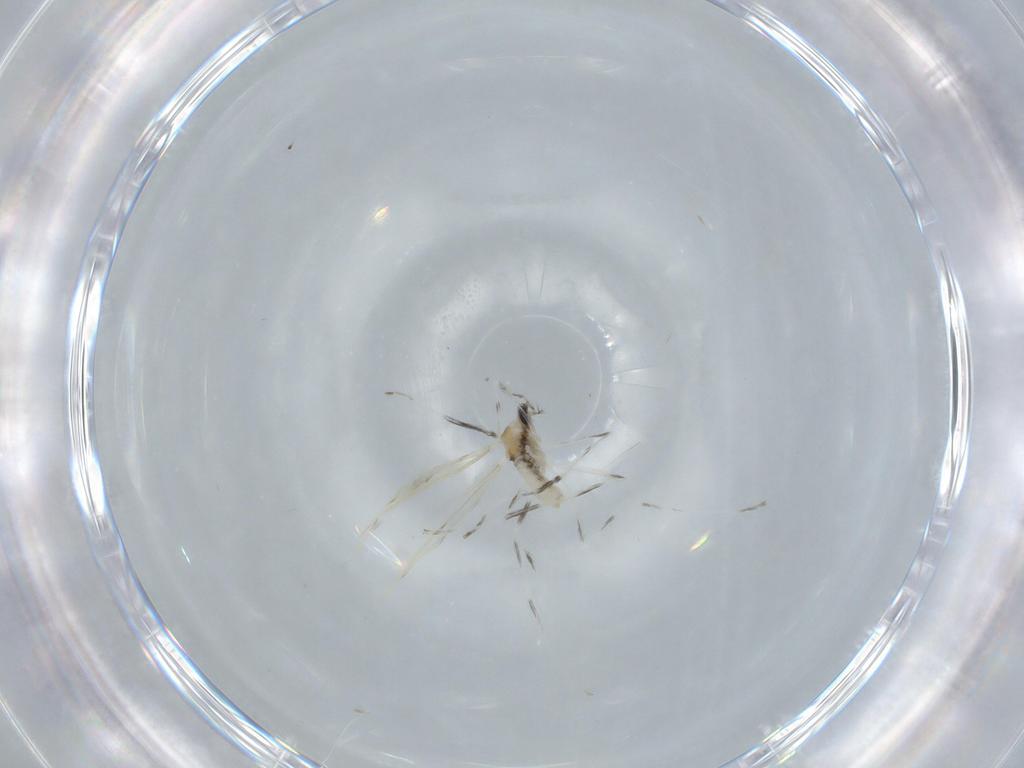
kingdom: Animalia
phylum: Arthropoda
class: Insecta
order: Diptera
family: Cecidomyiidae
